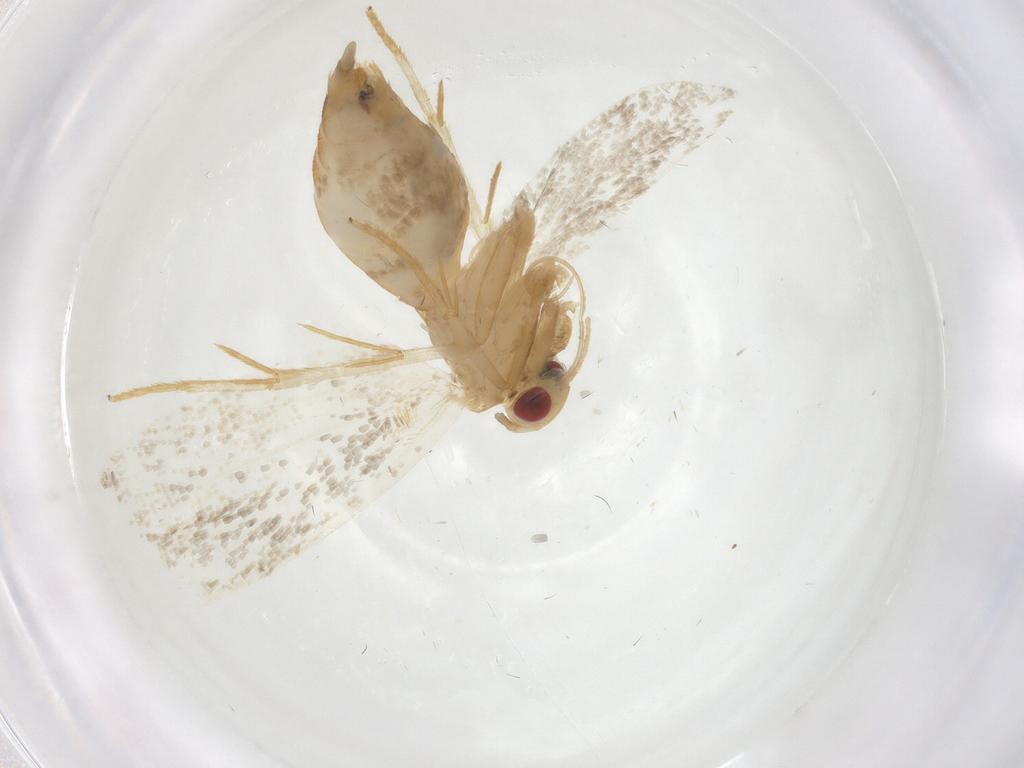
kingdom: Animalia
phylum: Arthropoda
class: Insecta
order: Lepidoptera
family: Oecophoridae
